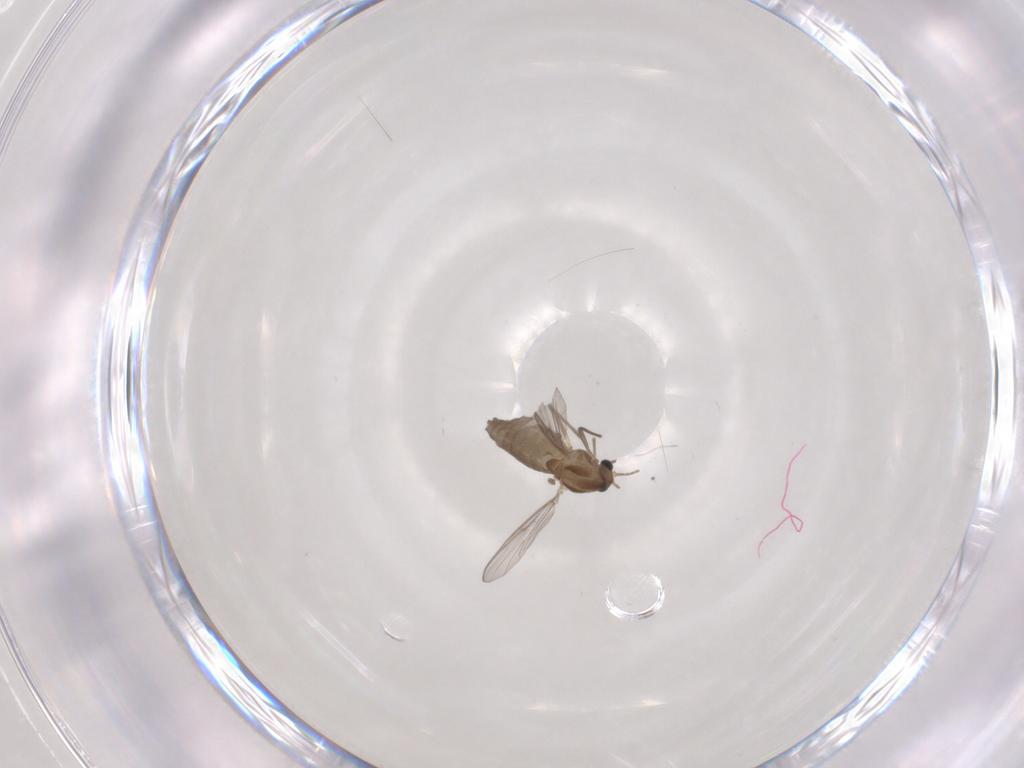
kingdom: Animalia
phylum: Arthropoda
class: Insecta
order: Diptera
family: Chironomidae
